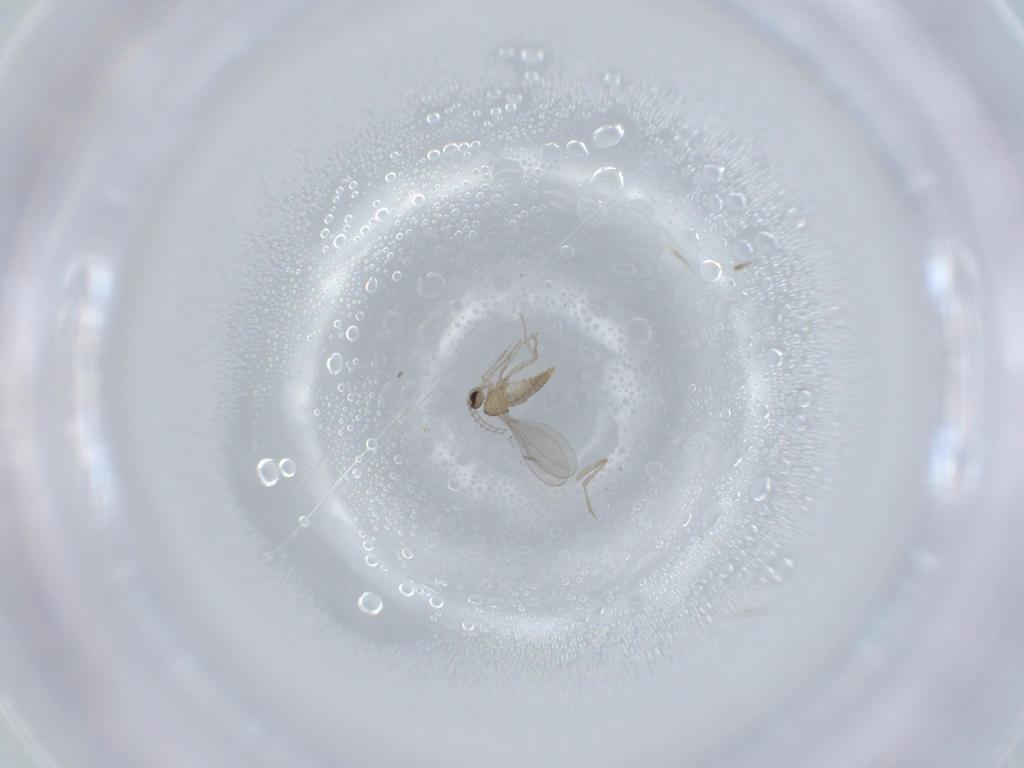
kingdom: Animalia
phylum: Arthropoda
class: Insecta
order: Diptera
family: Cecidomyiidae
